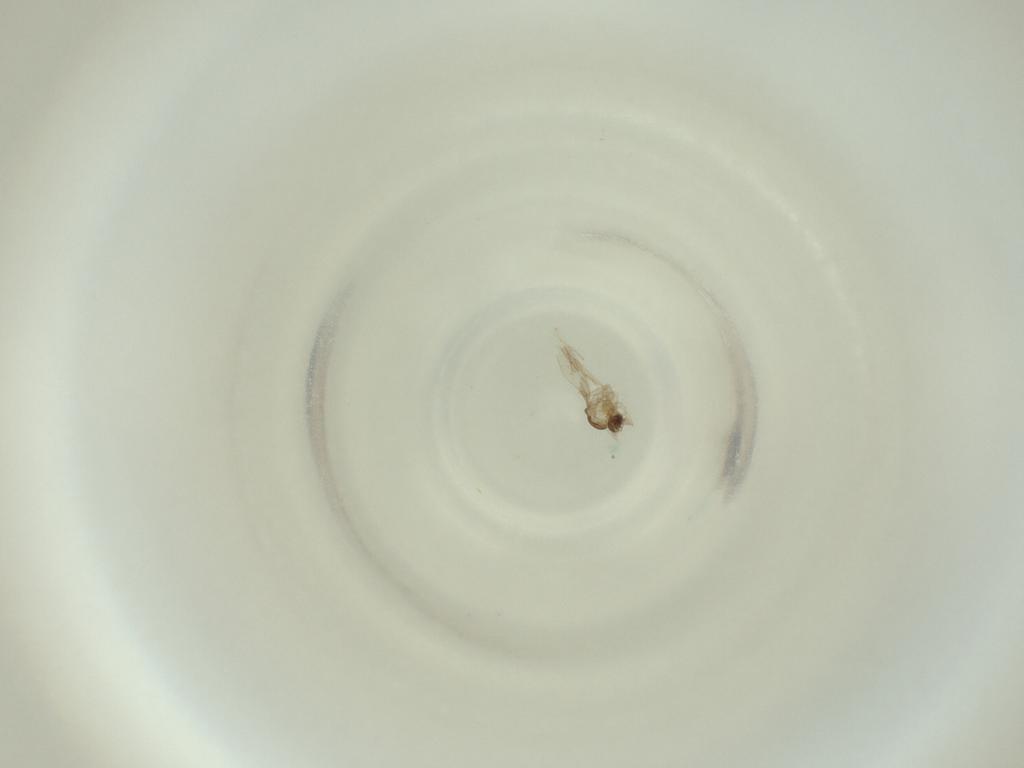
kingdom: Animalia
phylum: Arthropoda
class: Insecta
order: Diptera
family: Cecidomyiidae
